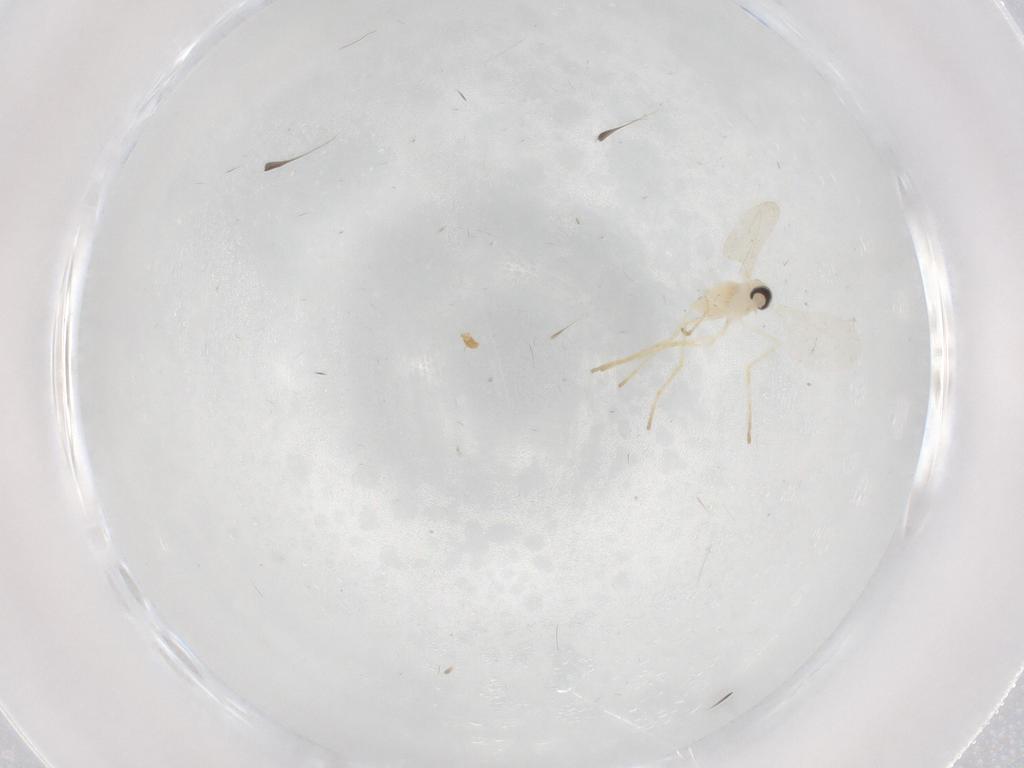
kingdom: Animalia
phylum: Arthropoda
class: Insecta
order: Diptera
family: Cecidomyiidae
